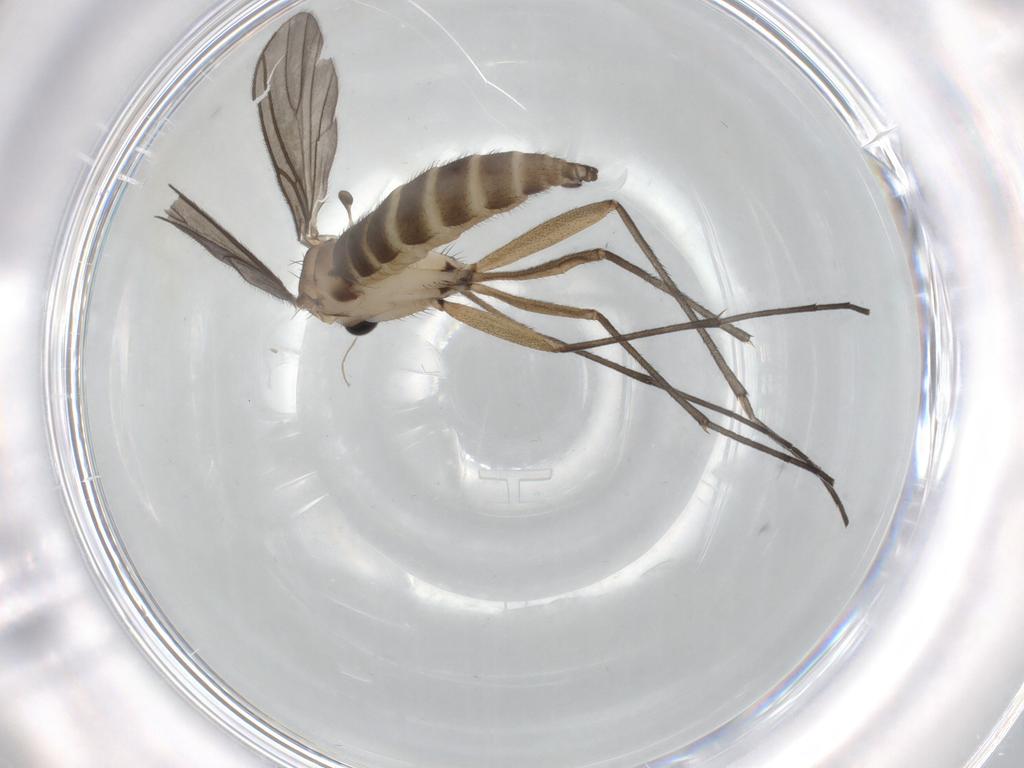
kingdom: Animalia
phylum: Arthropoda
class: Insecta
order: Diptera
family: Sciaridae
